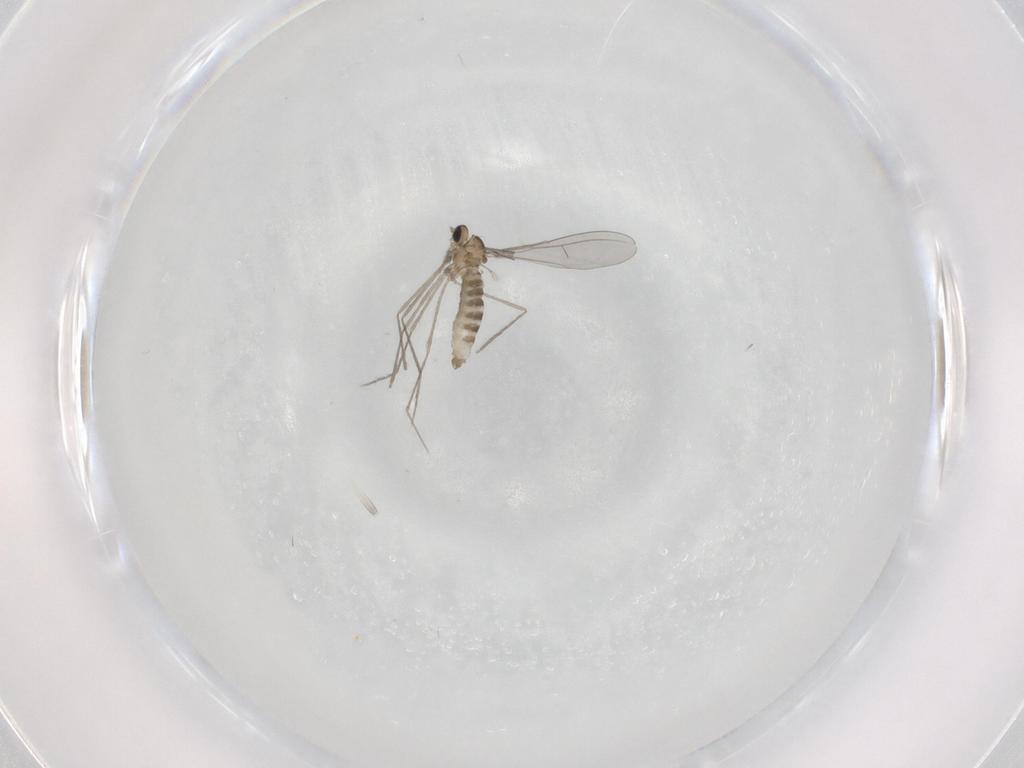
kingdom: Animalia
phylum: Arthropoda
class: Insecta
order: Diptera
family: Cecidomyiidae
